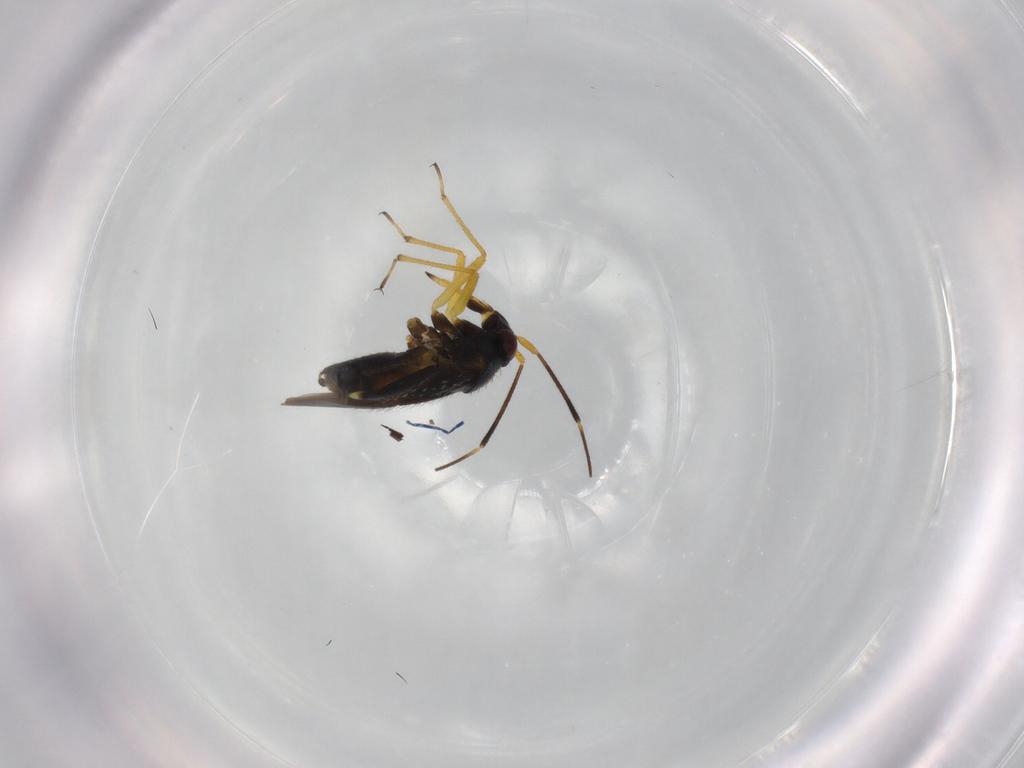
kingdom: Animalia
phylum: Arthropoda
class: Insecta
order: Hemiptera
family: Miridae
